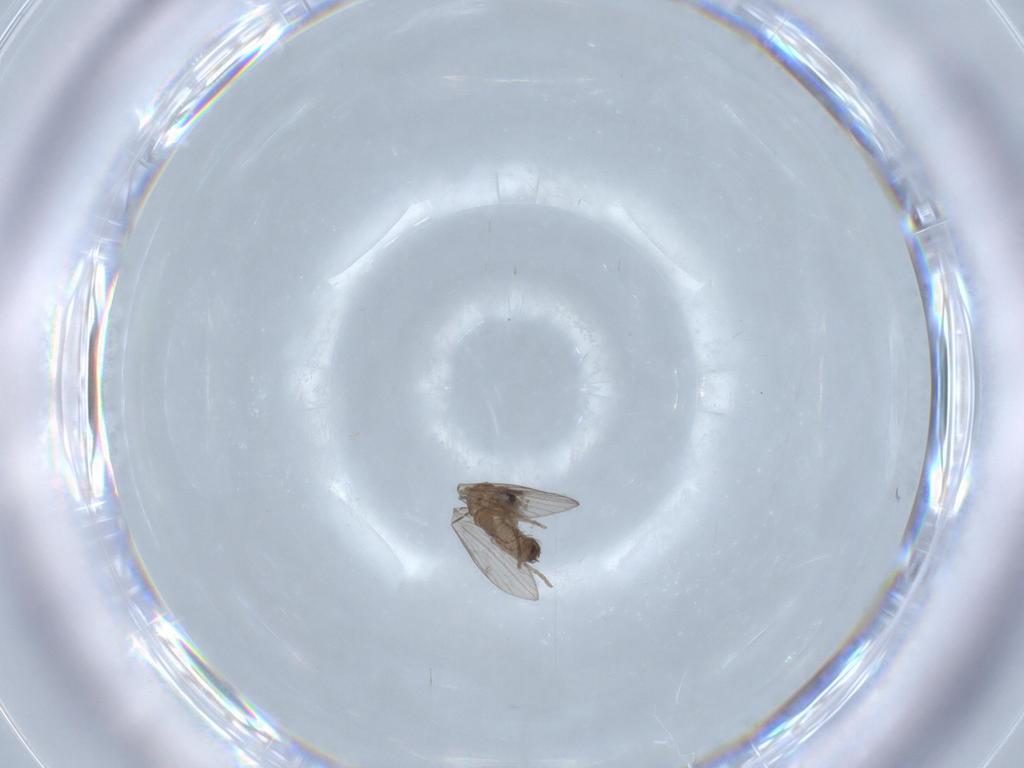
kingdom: Animalia
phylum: Arthropoda
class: Insecta
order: Diptera
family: Psychodidae
